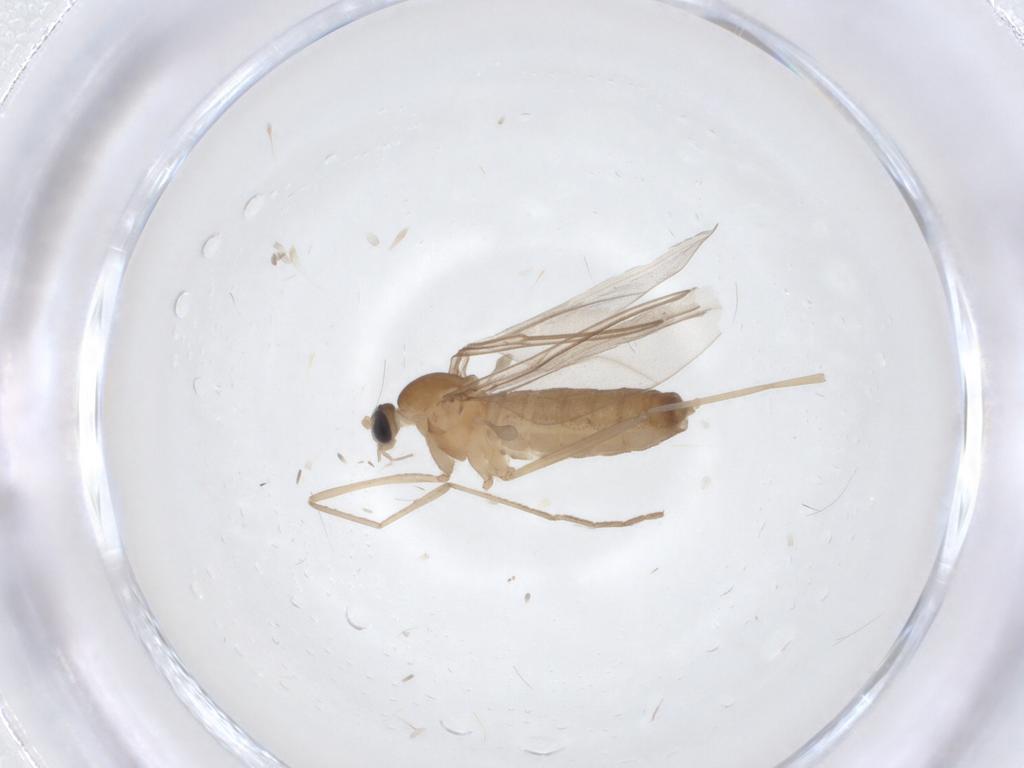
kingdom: Animalia
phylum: Arthropoda
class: Insecta
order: Diptera
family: Cecidomyiidae
